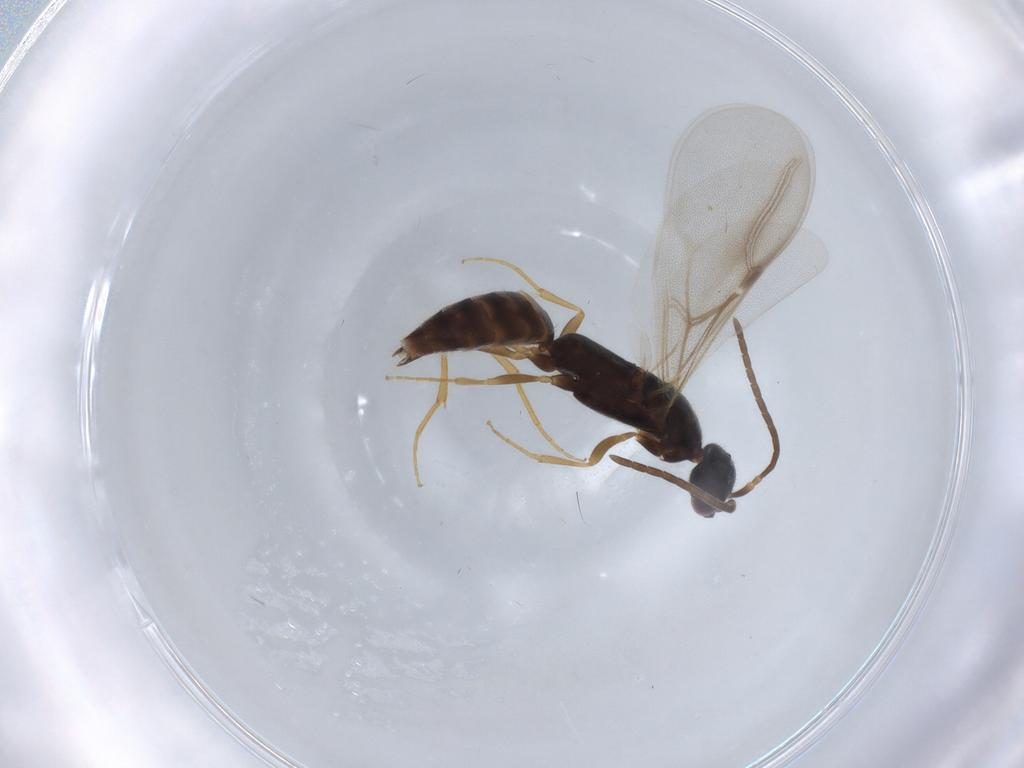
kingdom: Animalia
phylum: Arthropoda
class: Insecta
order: Hymenoptera
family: Bethylidae
